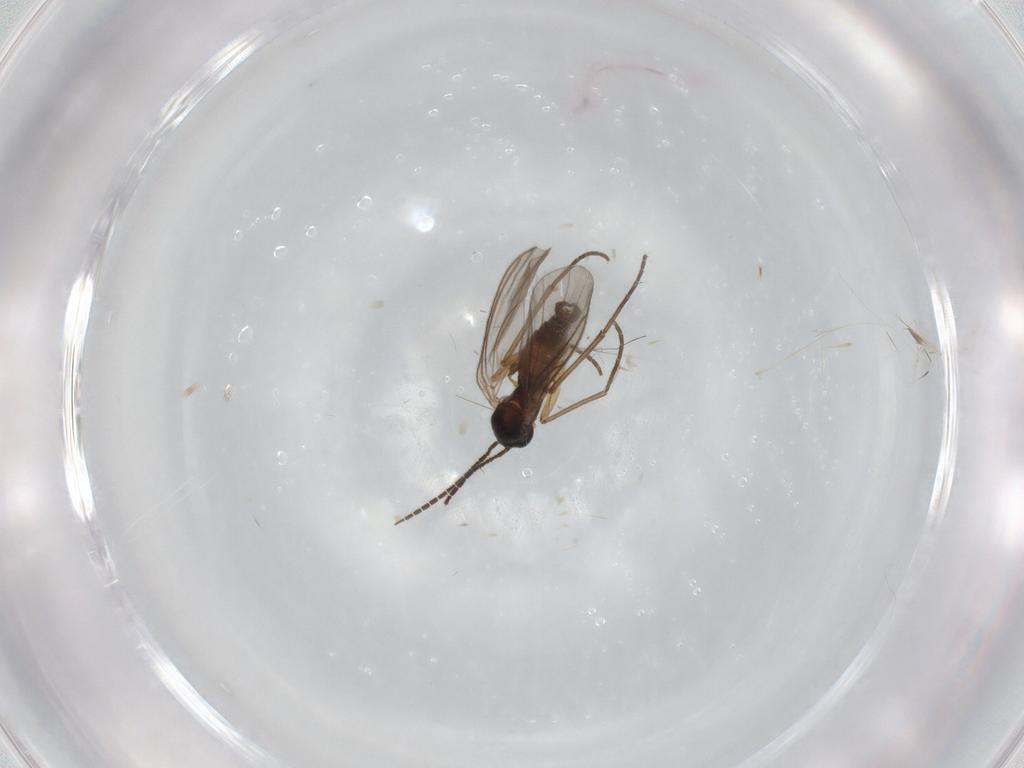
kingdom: Animalia
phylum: Arthropoda
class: Insecta
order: Diptera
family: Sciaridae
